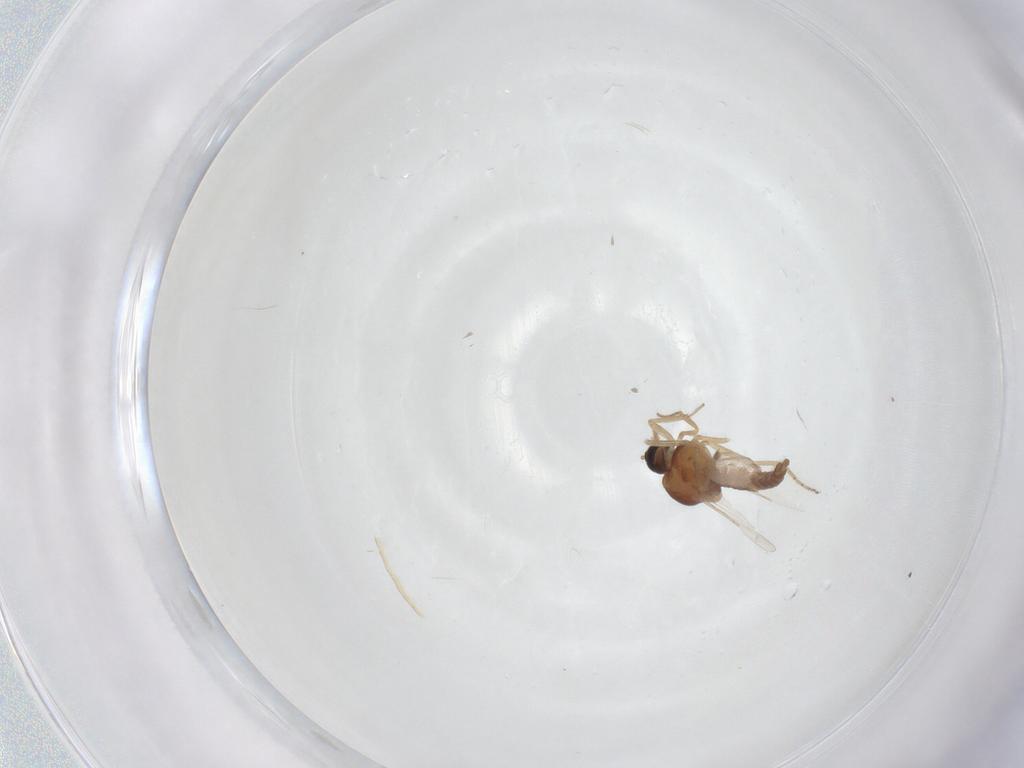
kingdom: Animalia
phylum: Arthropoda
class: Insecta
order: Diptera
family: Ceratopogonidae
